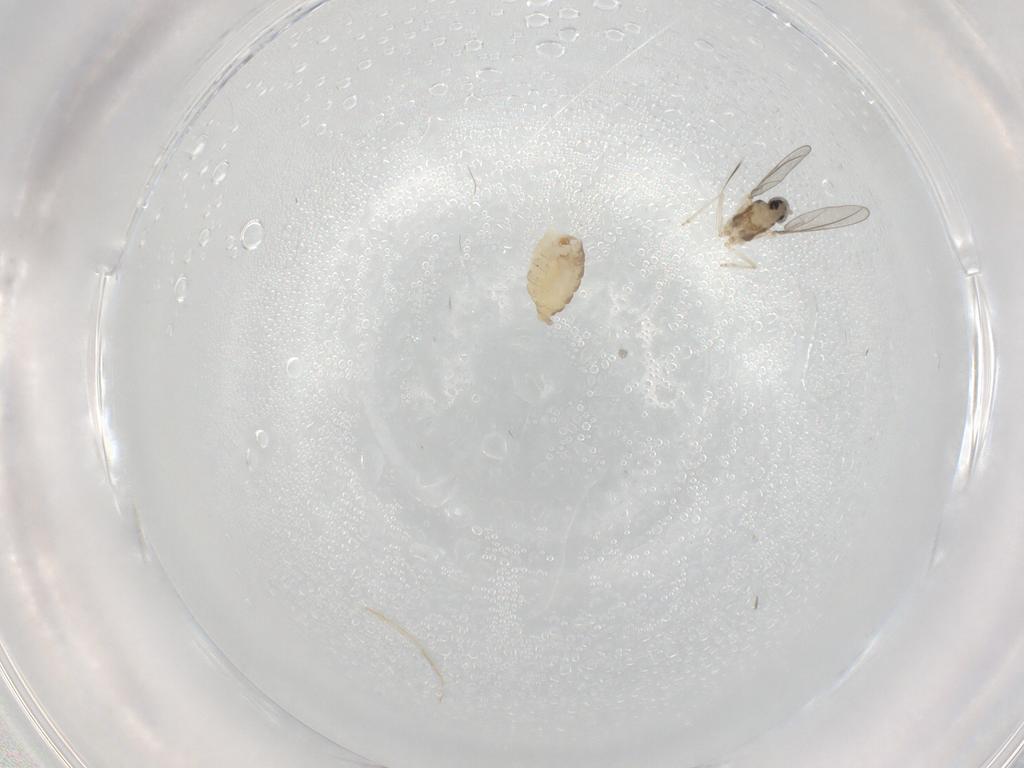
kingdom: Animalia
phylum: Arthropoda
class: Insecta
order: Diptera
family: Cecidomyiidae
